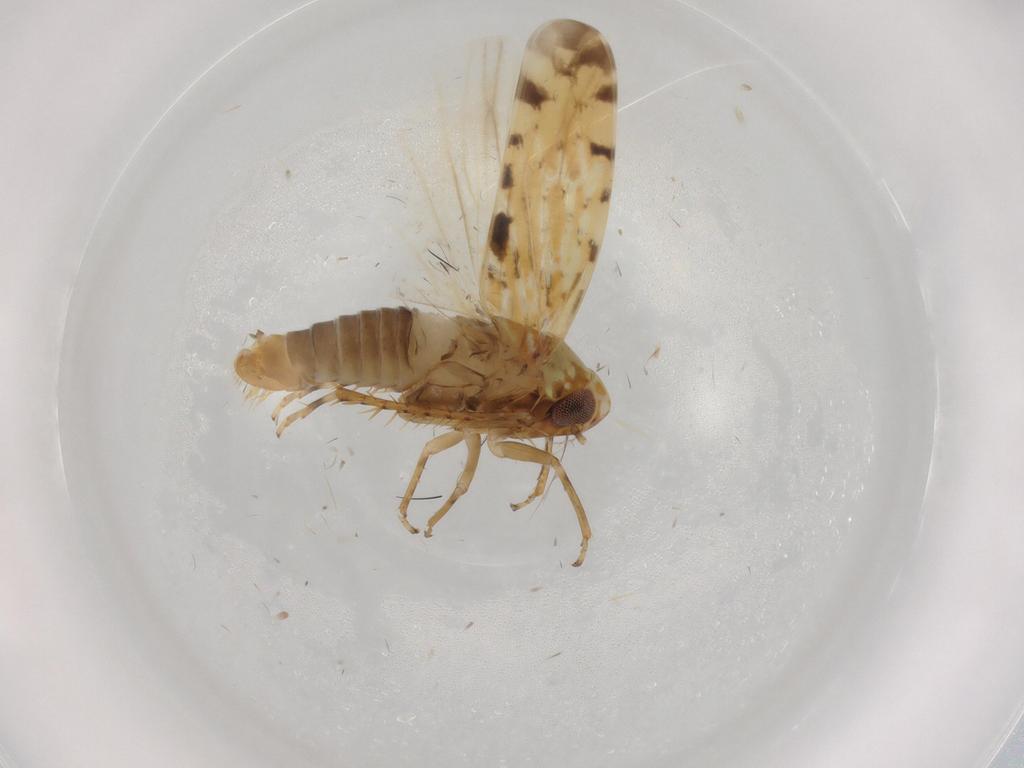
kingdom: Animalia
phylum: Arthropoda
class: Insecta
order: Hemiptera
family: Cicadellidae
